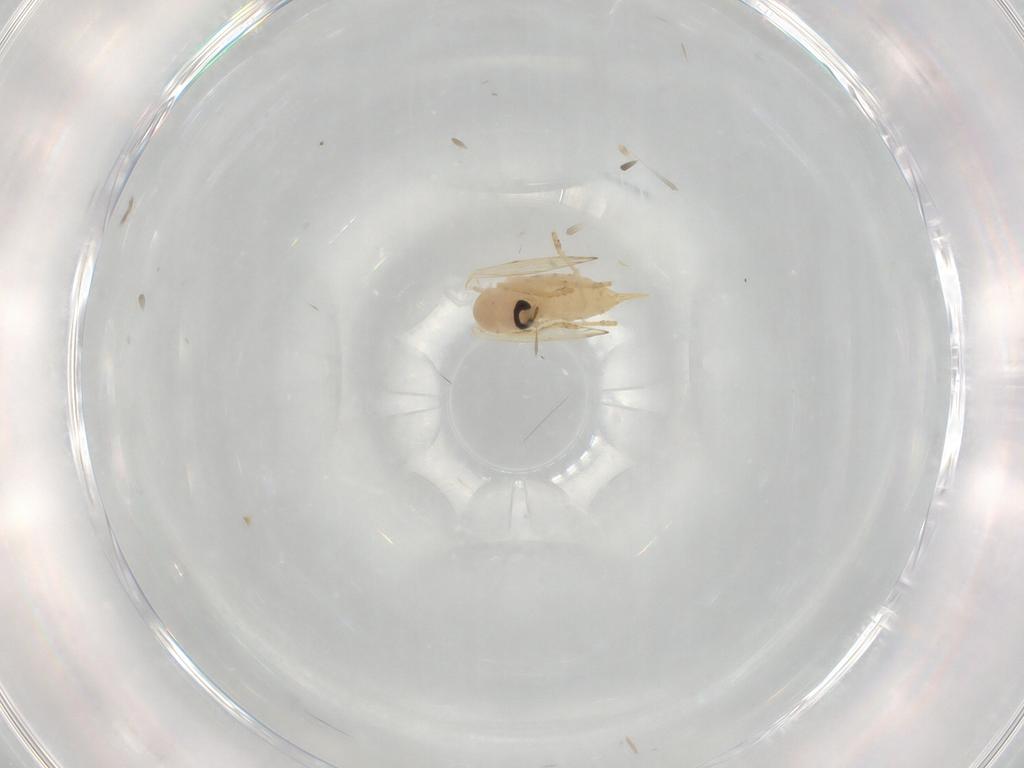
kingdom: Animalia
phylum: Arthropoda
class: Insecta
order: Diptera
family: Psychodidae
